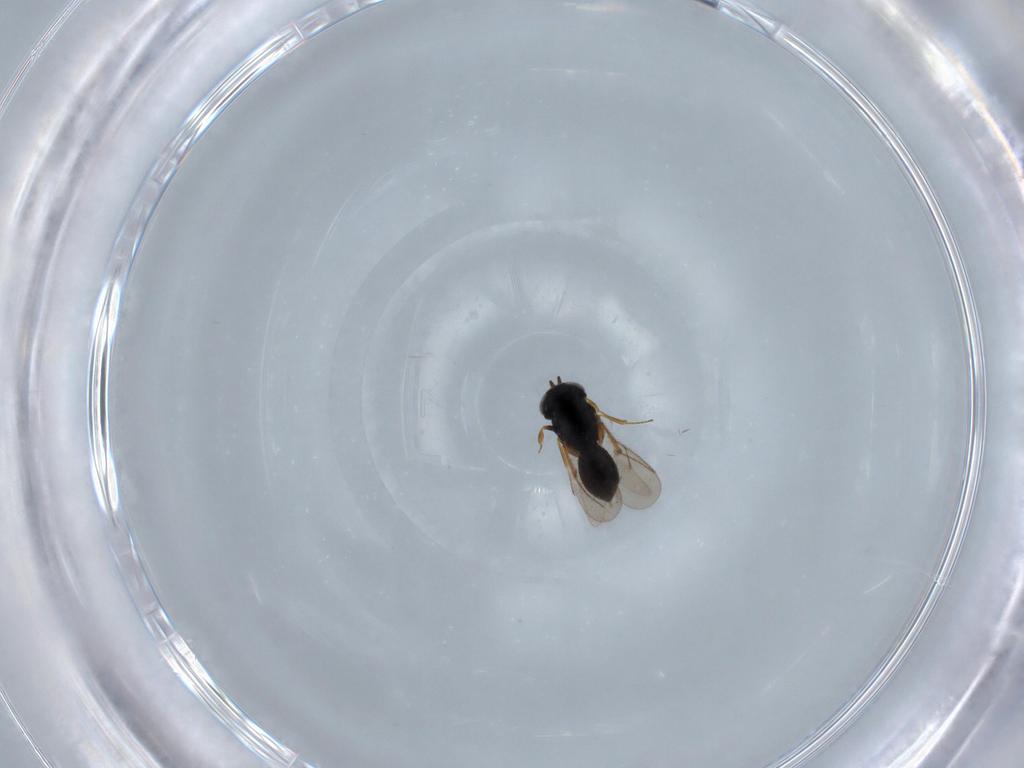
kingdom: Animalia
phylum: Arthropoda
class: Insecta
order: Hymenoptera
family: Scelionidae
